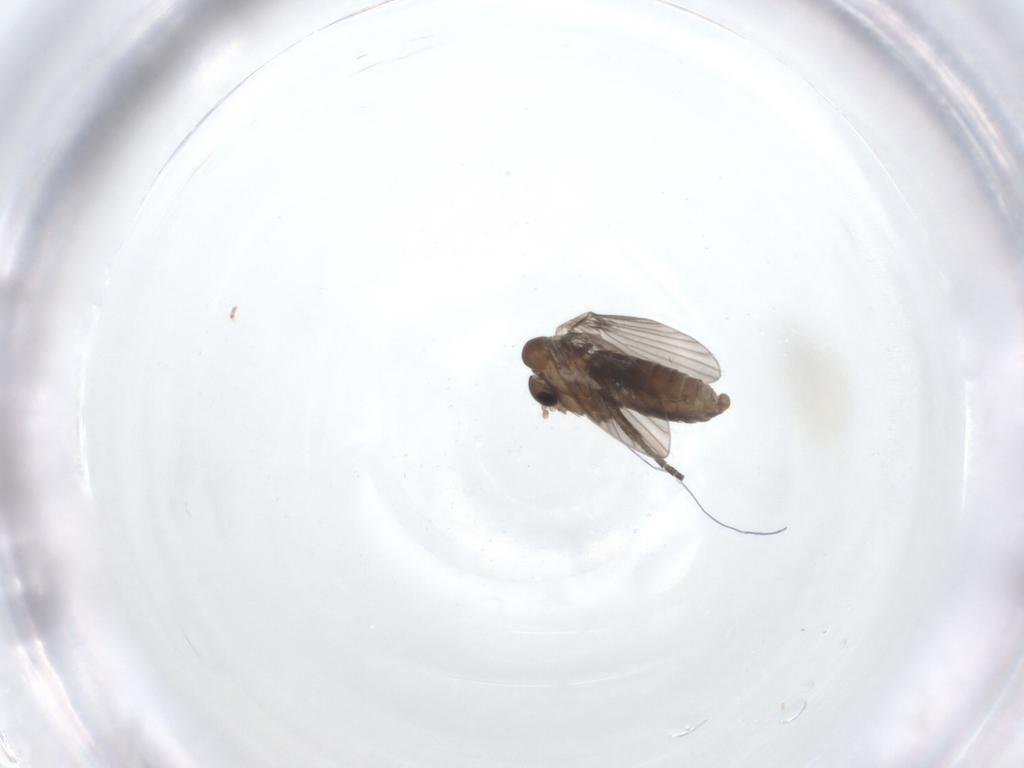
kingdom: Animalia
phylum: Arthropoda
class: Insecta
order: Diptera
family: Psychodidae
